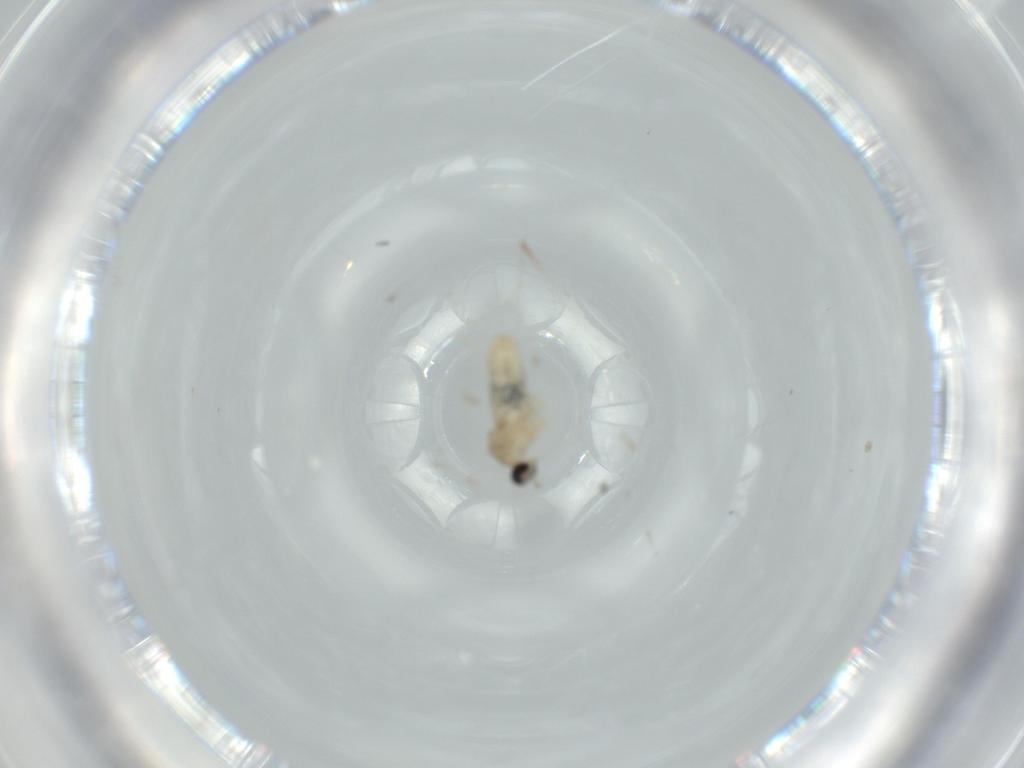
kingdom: Animalia
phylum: Arthropoda
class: Insecta
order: Diptera
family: Cecidomyiidae
